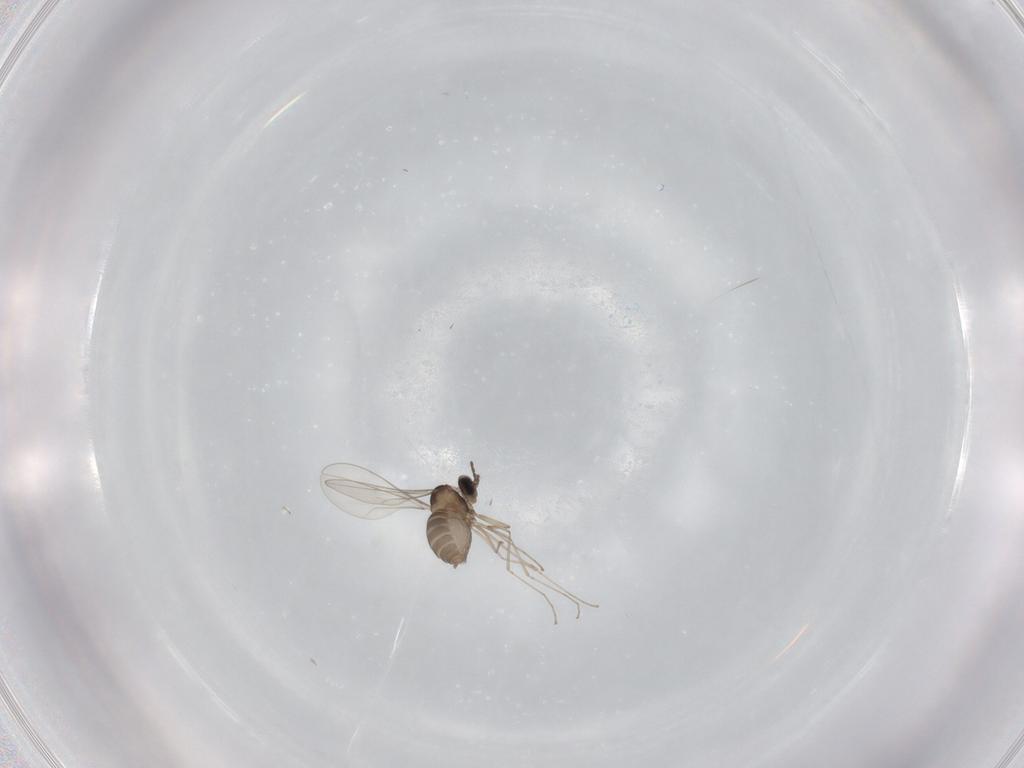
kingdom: Animalia
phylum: Arthropoda
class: Insecta
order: Diptera
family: Cecidomyiidae
